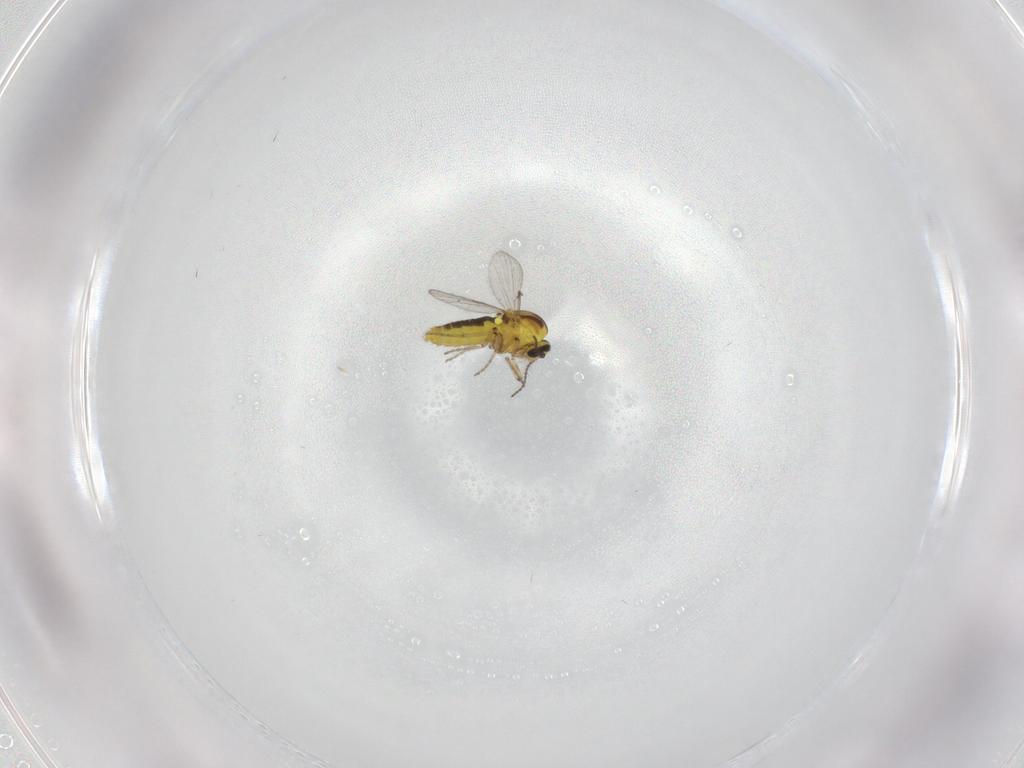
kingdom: Animalia
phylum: Arthropoda
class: Insecta
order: Diptera
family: Ceratopogonidae
